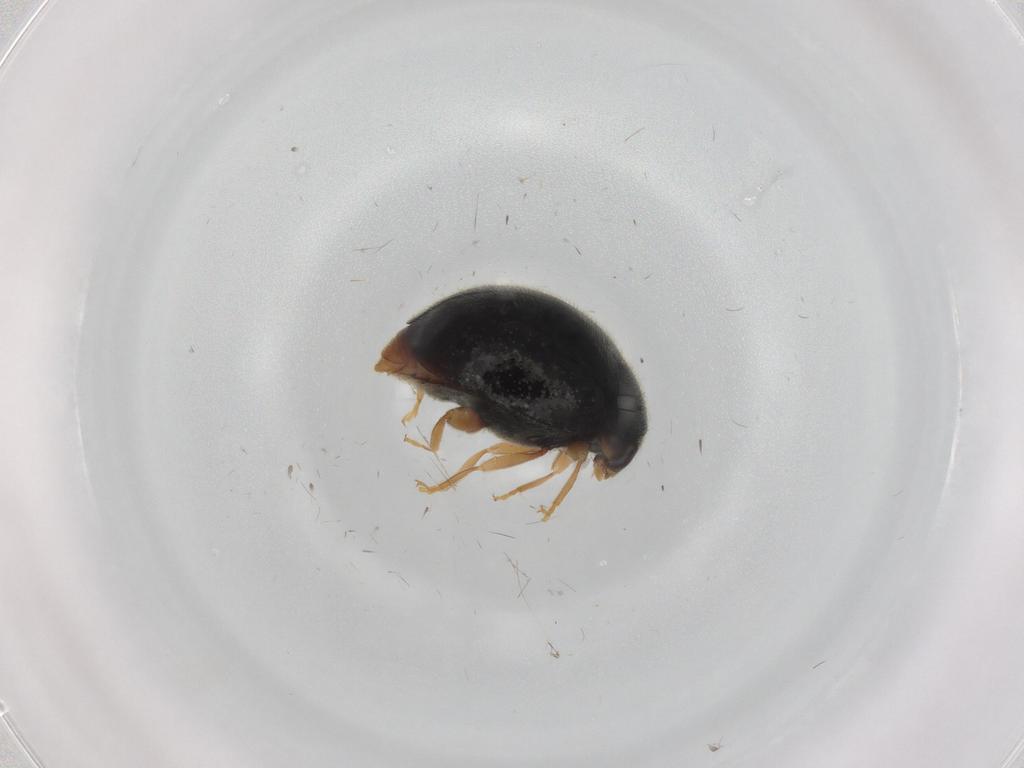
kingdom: Animalia
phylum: Arthropoda
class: Insecta
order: Coleoptera
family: Coccinellidae
